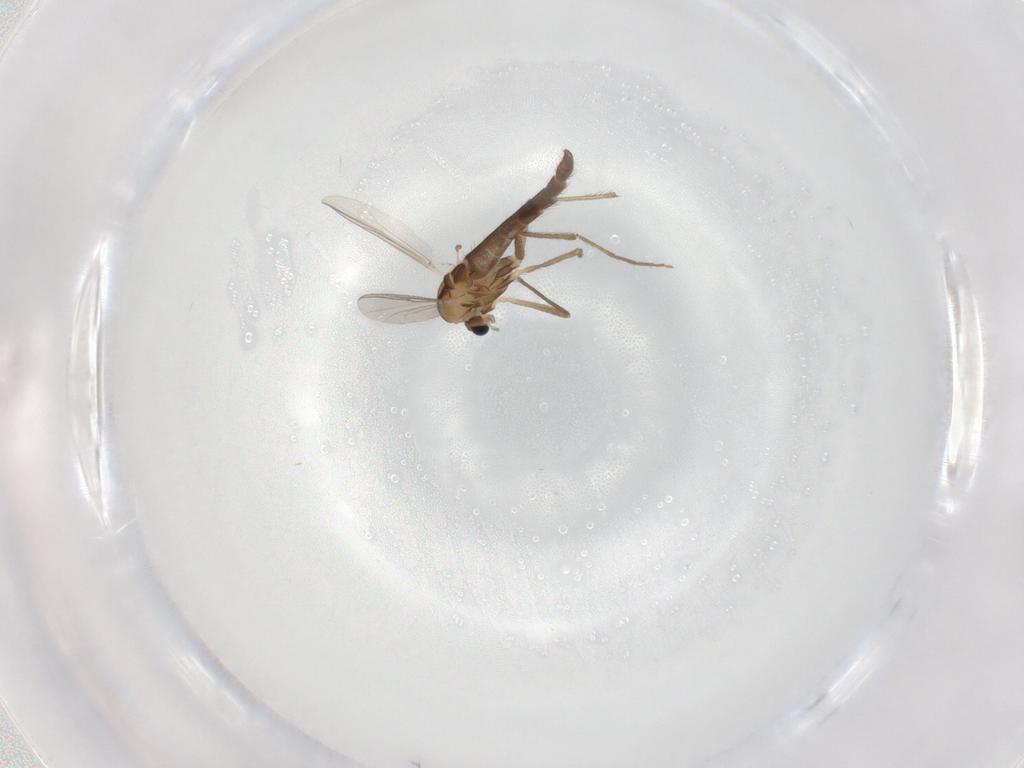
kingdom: Animalia
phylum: Arthropoda
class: Insecta
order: Diptera
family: Chironomidae
